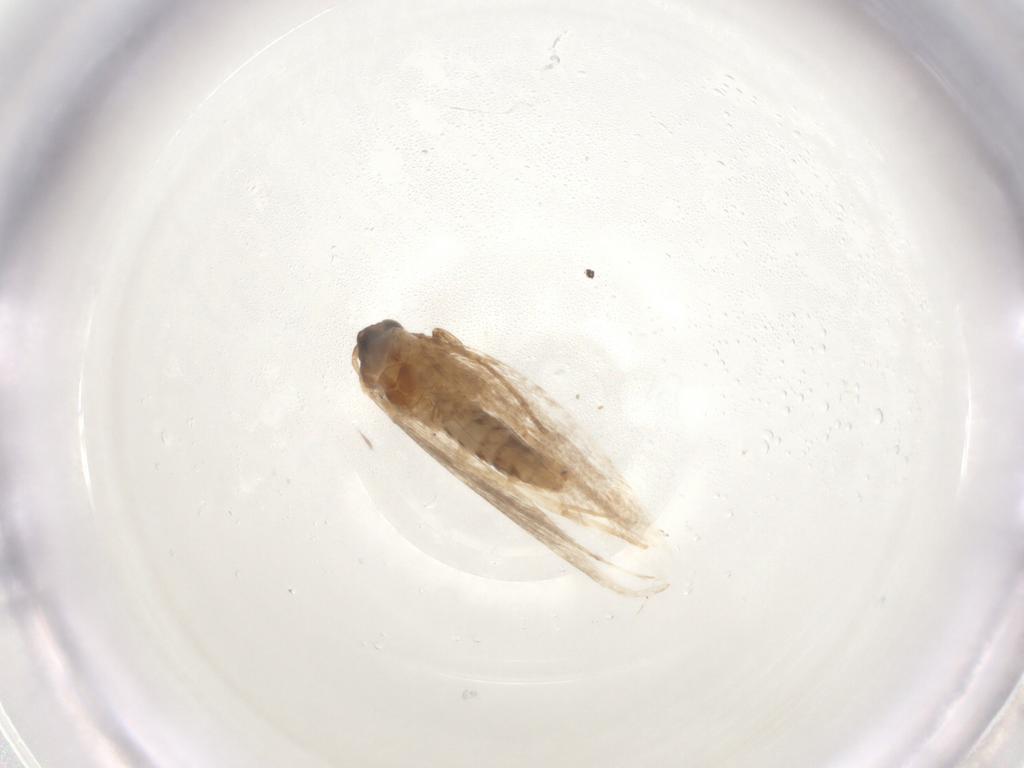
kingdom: Animalia
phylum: Arthropoda
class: Insecta
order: Lepidoptera
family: Nepticulidae
